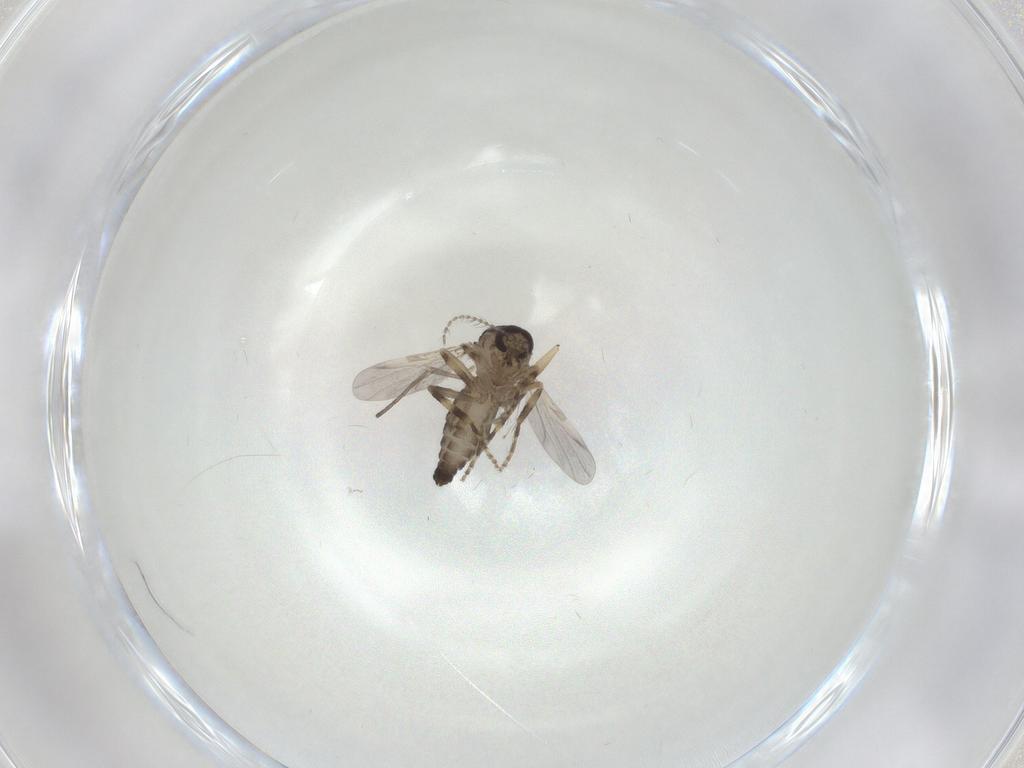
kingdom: Animalia
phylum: Arthropoda
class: Insecta
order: Diptera
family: Ceratopogonidae
